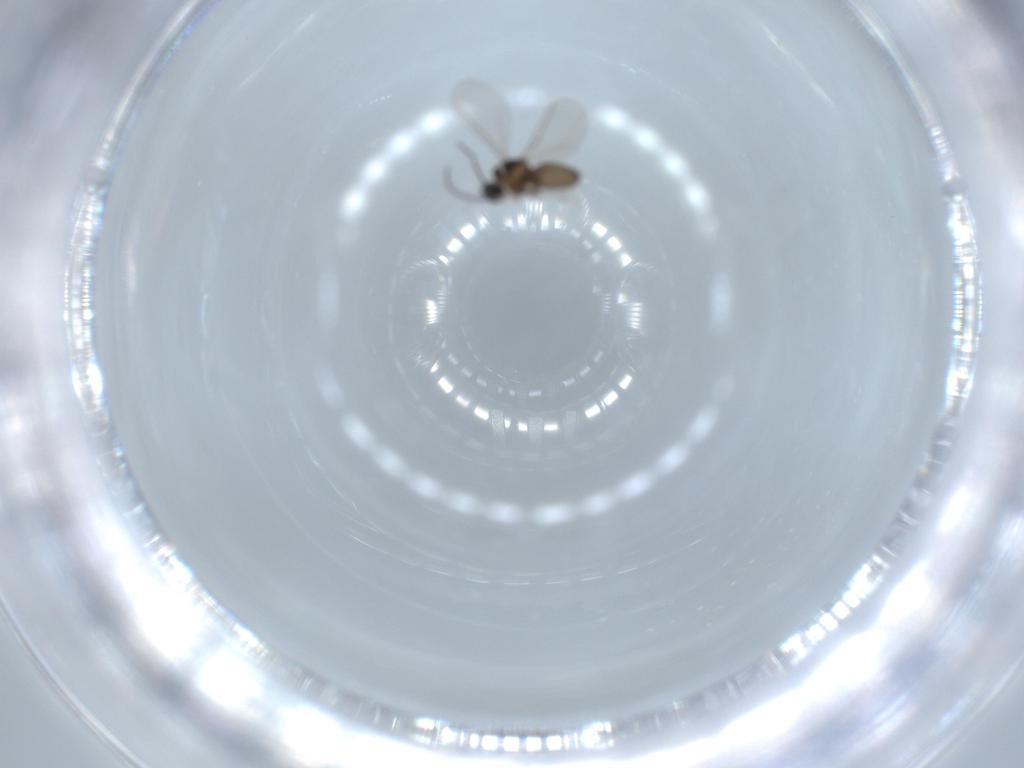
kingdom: Animalia
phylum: Arthropoda
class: Insecta
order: Diptera
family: Cecidomyiidae
